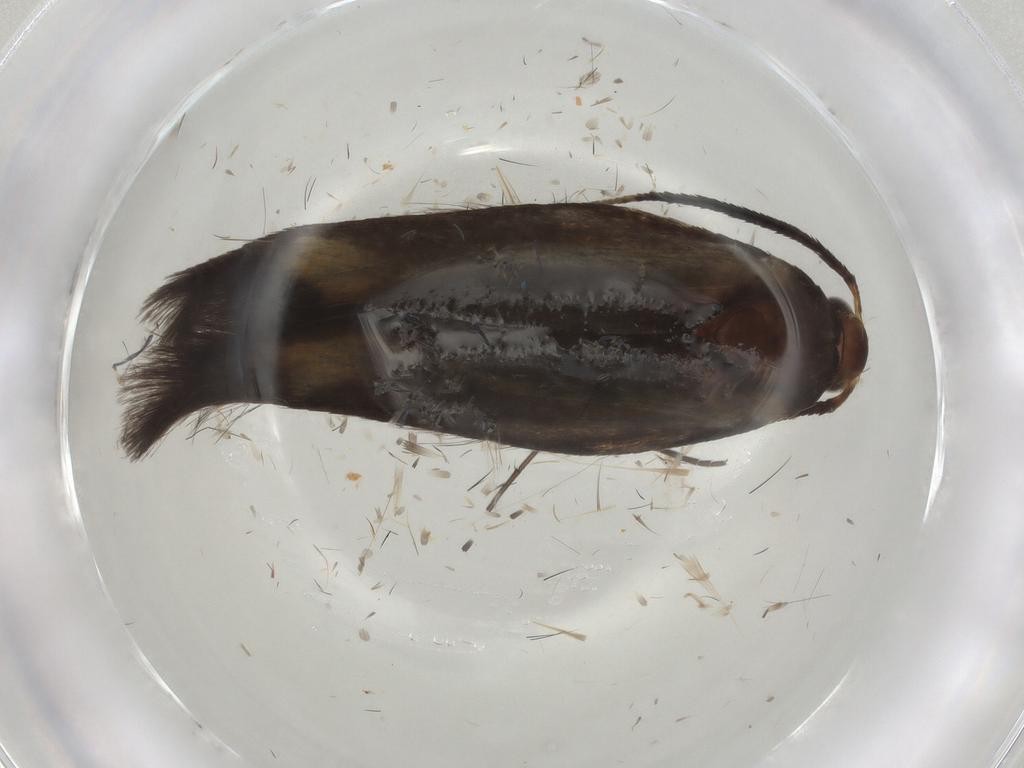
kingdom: Animalia
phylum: Arthropoda
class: Insecta
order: Lepidoptera
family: Scythrididae
